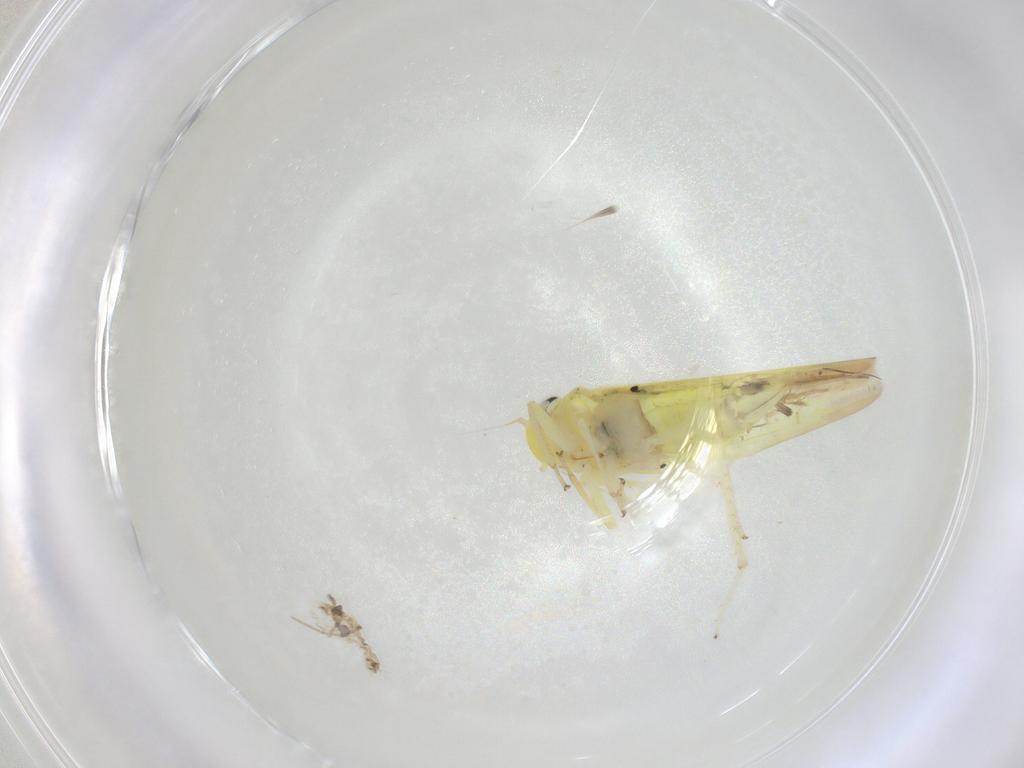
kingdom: Animalia
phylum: Arthropoda
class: Insecta
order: Hemiptera
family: Cicadellidae
